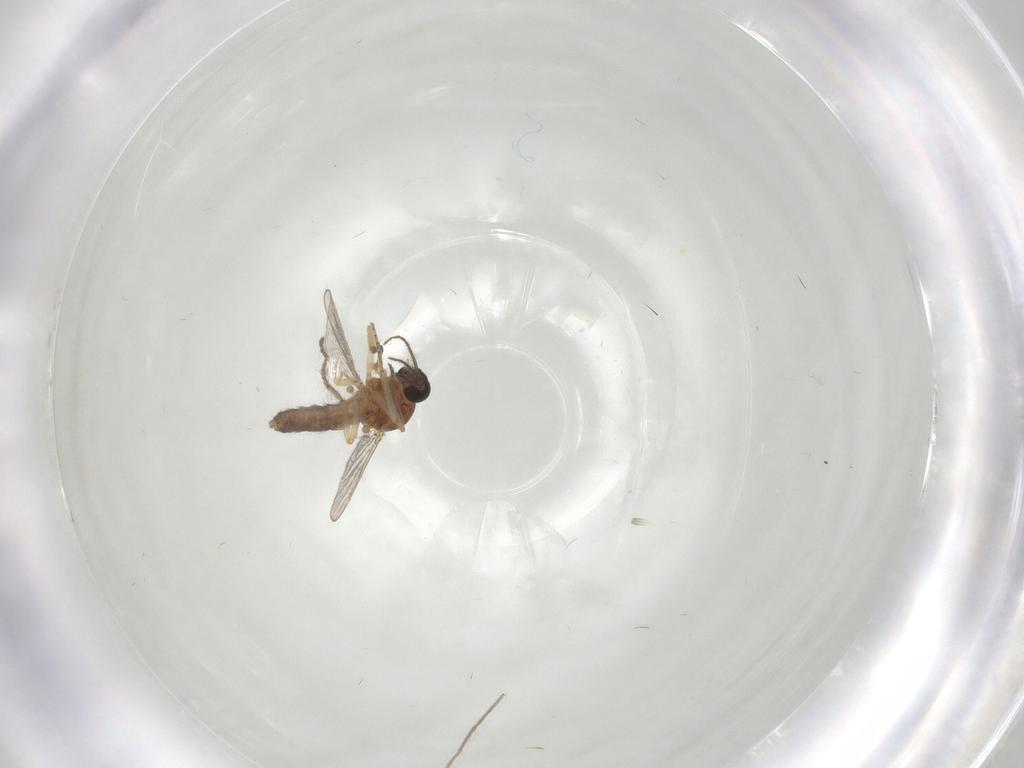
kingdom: Animalia
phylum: Arthropoda
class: Insecta
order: Diptera
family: Ceratopogonidae
